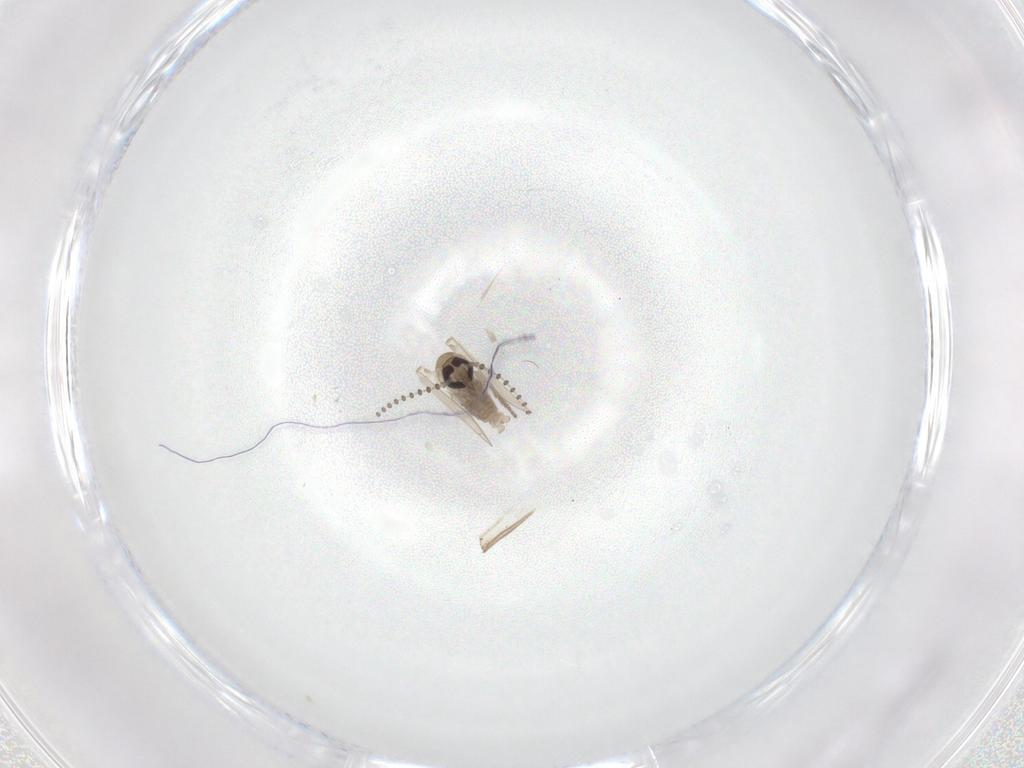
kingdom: Animalia
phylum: Arthropoda
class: Insecta
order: Diptera
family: Psychodidae
